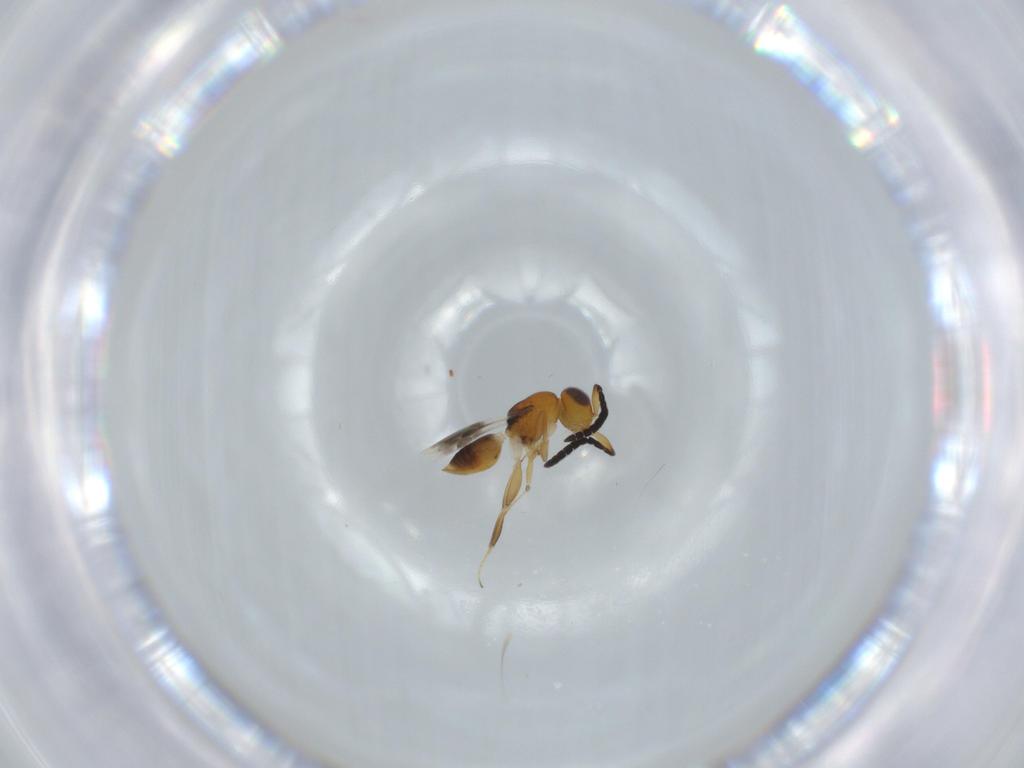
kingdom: Animalia
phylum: Arthropoda
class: Insecta
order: Hymenoptera
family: Megaspilidae
